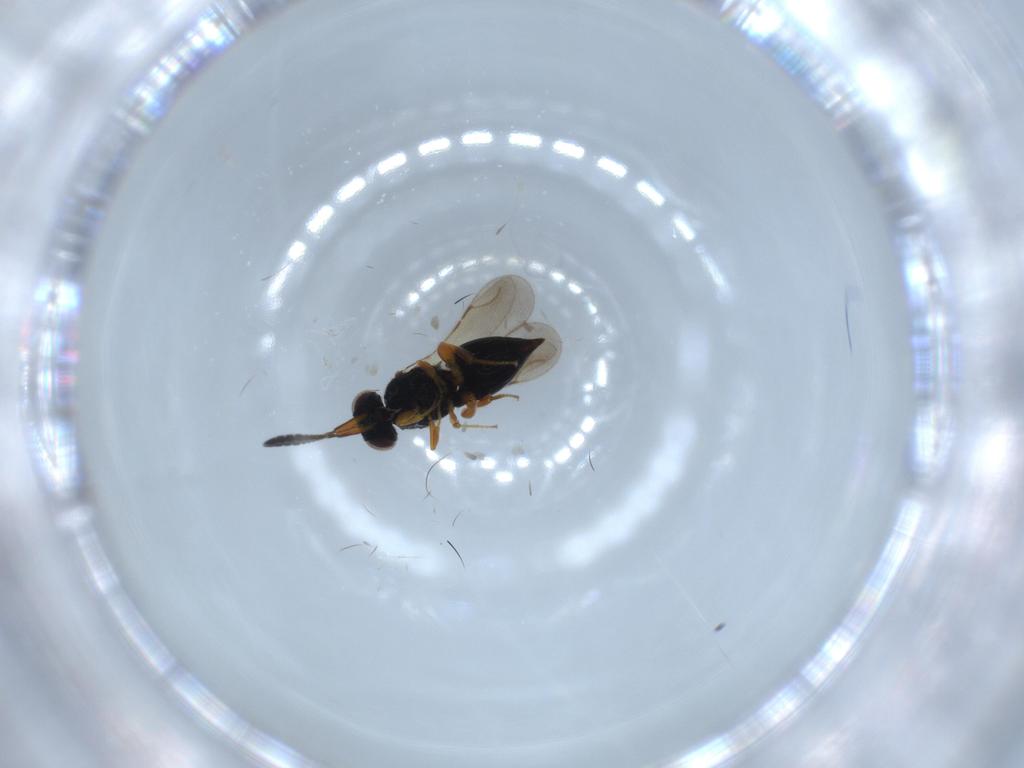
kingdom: Animalia
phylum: Arthropoda
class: Insecta
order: Hymenoptera
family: Ceraphronidae
